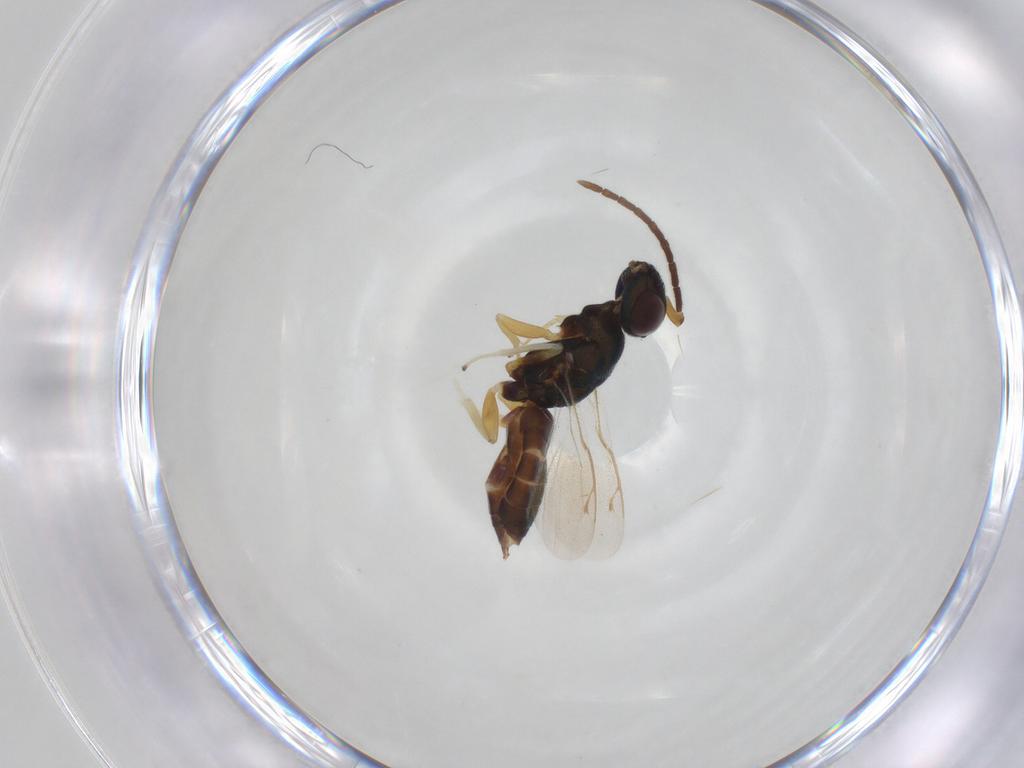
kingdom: Animalia
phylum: Arthropoda
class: Insecta
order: Hymenoptera
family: Eupelmidae
